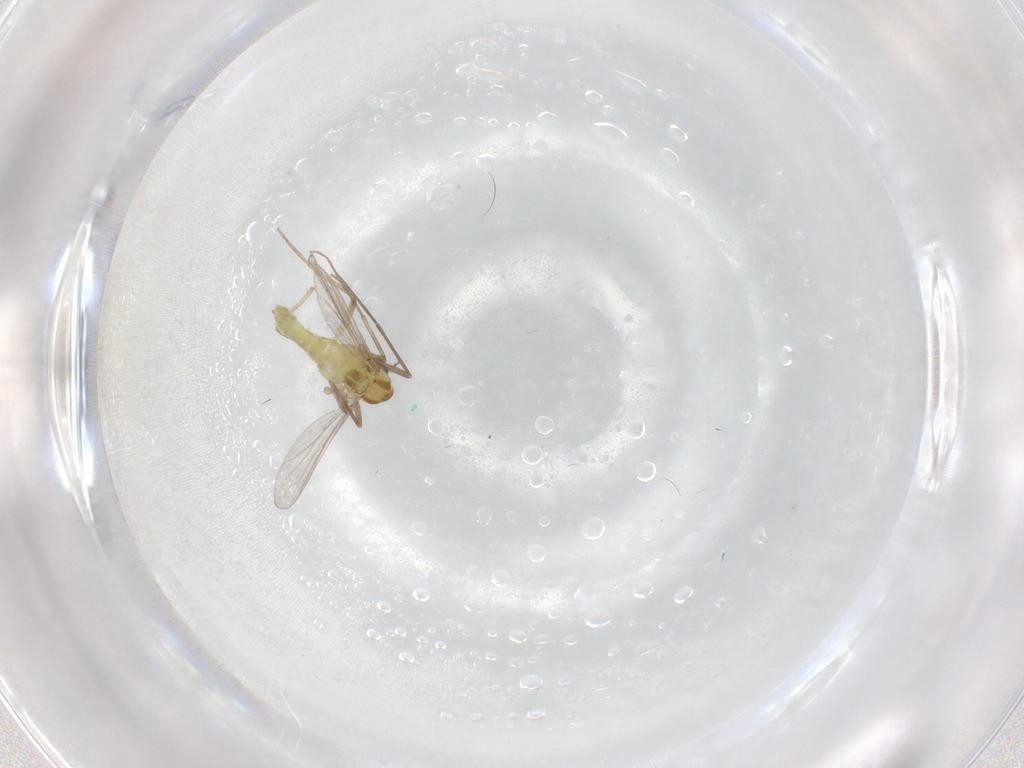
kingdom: Animalia
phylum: Arthropoda
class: Insecta
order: Diptera
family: Chironomidae
